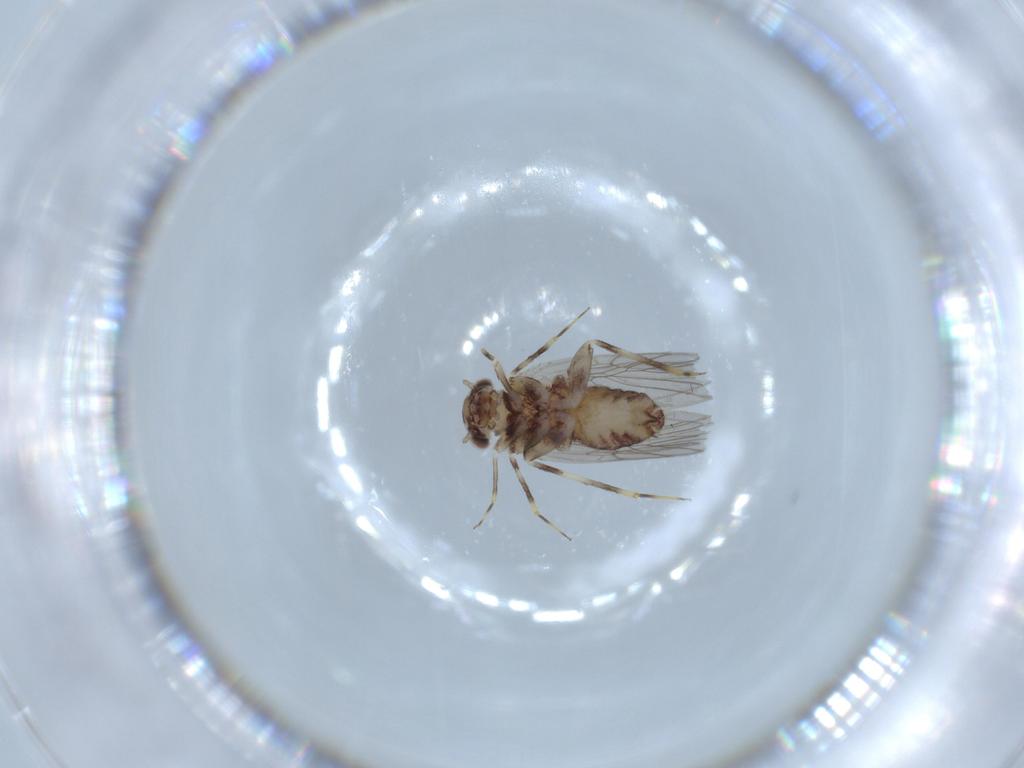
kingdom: Animalia
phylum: Arthropoda
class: Insecta
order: Psocodea
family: Lepidopsocidae
